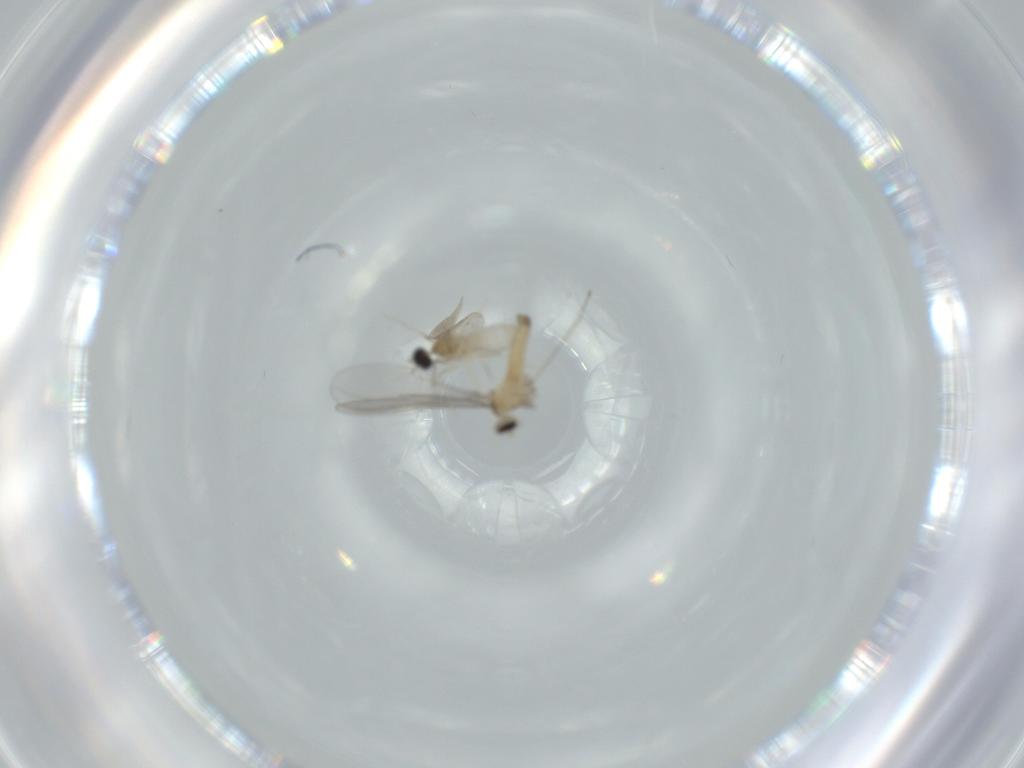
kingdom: Animalia
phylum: Arthropoda
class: Insecta
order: Diptera
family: Cecidomyiidae
